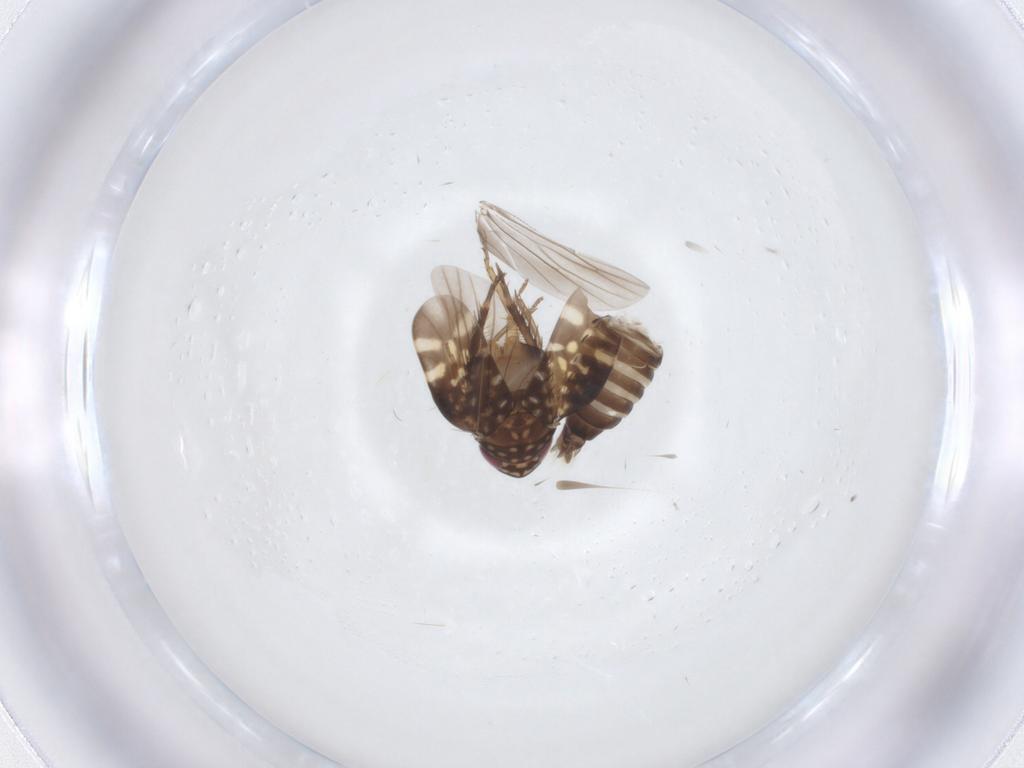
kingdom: Animalia
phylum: Arthropoda
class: Insecta
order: Hemiptera
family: Cicadellidae
